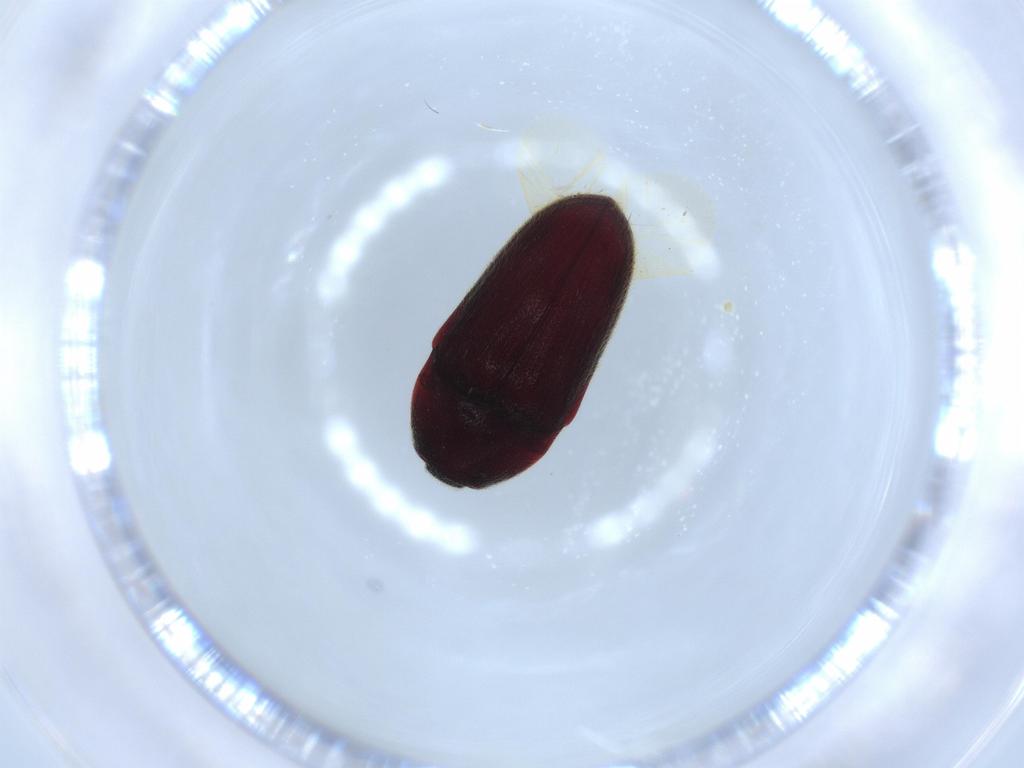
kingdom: Animalia
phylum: Arthropoda
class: Insecta
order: Coleoptera
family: Throscidae
